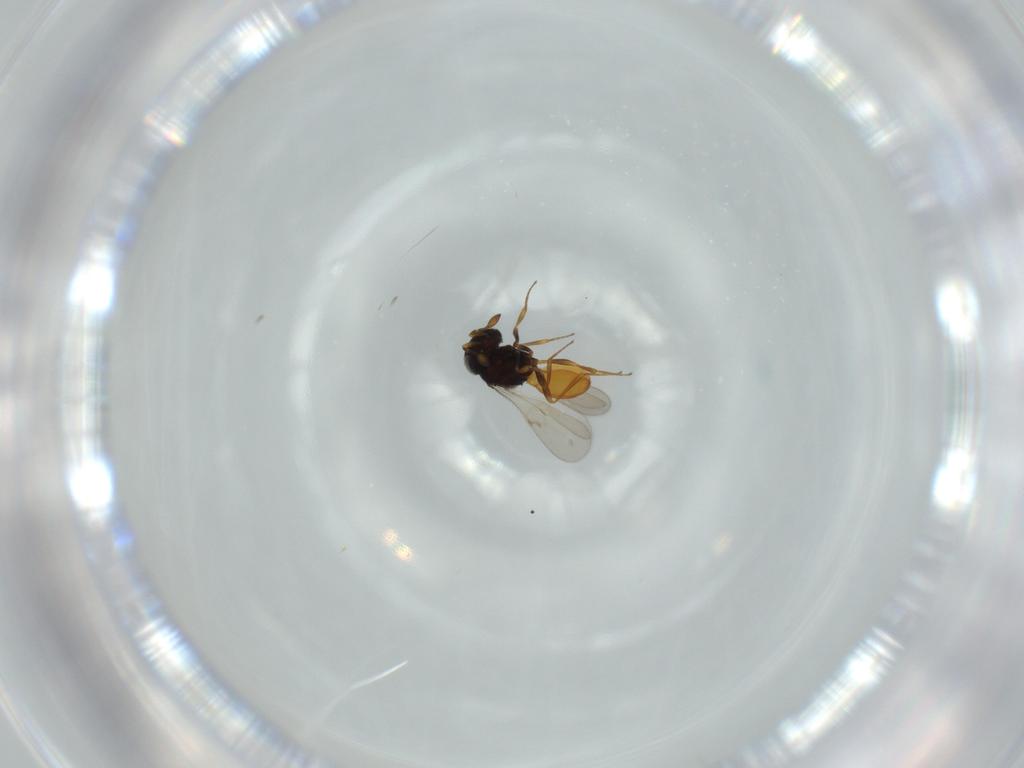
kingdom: Animalia
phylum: Arthropoda
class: Insecta
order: Hymenoptera
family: Scelionidae
